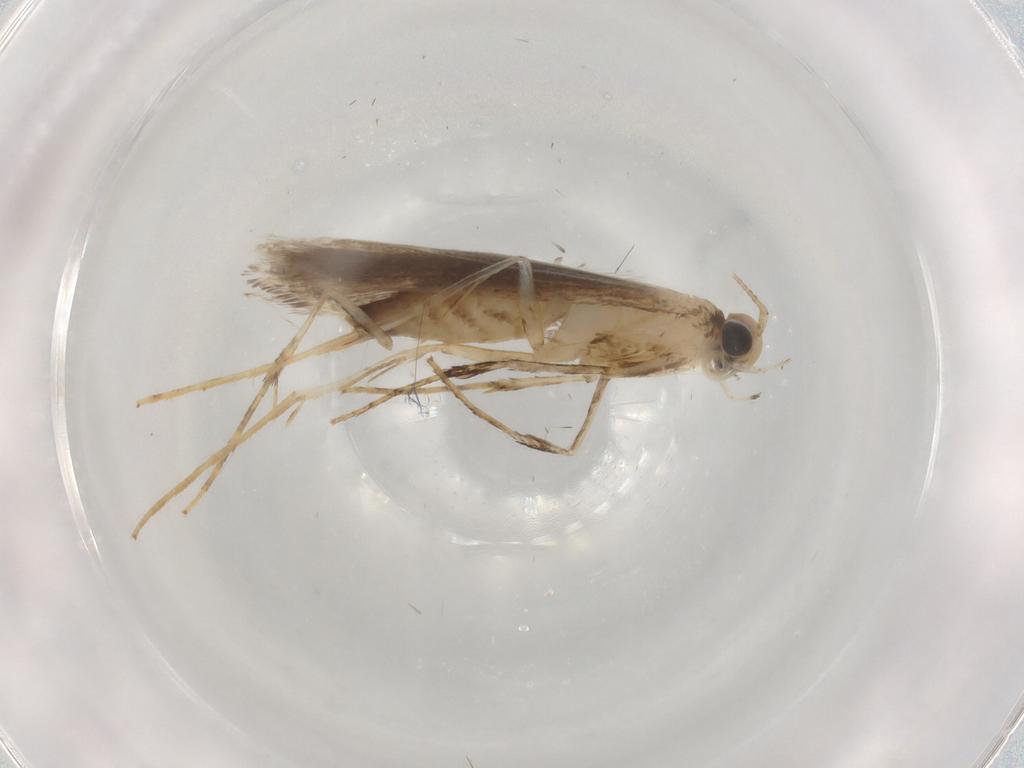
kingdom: Animalia
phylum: Arthropoda
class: Insecta
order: Lepidoptera
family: Gracillariidae
